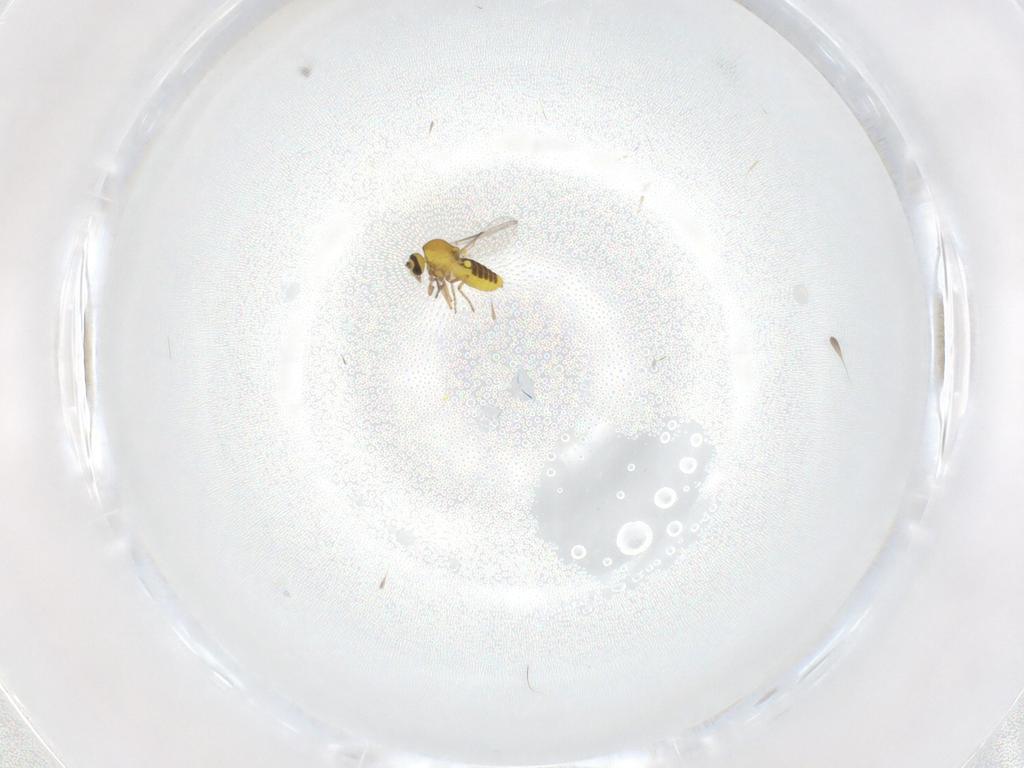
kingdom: Animalia
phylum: Arthropoda
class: Insecta
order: Diptera
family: Ceratopogonidae
